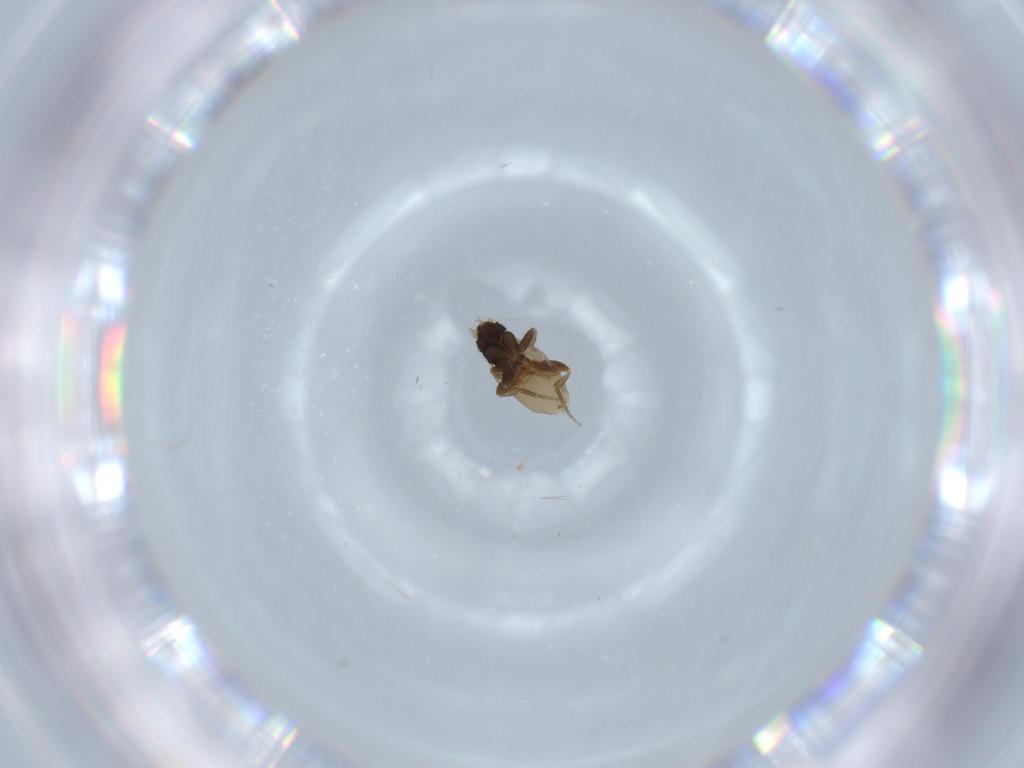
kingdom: Animalia
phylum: Arthropoda
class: Insecta
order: Diptera
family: Phoridae
